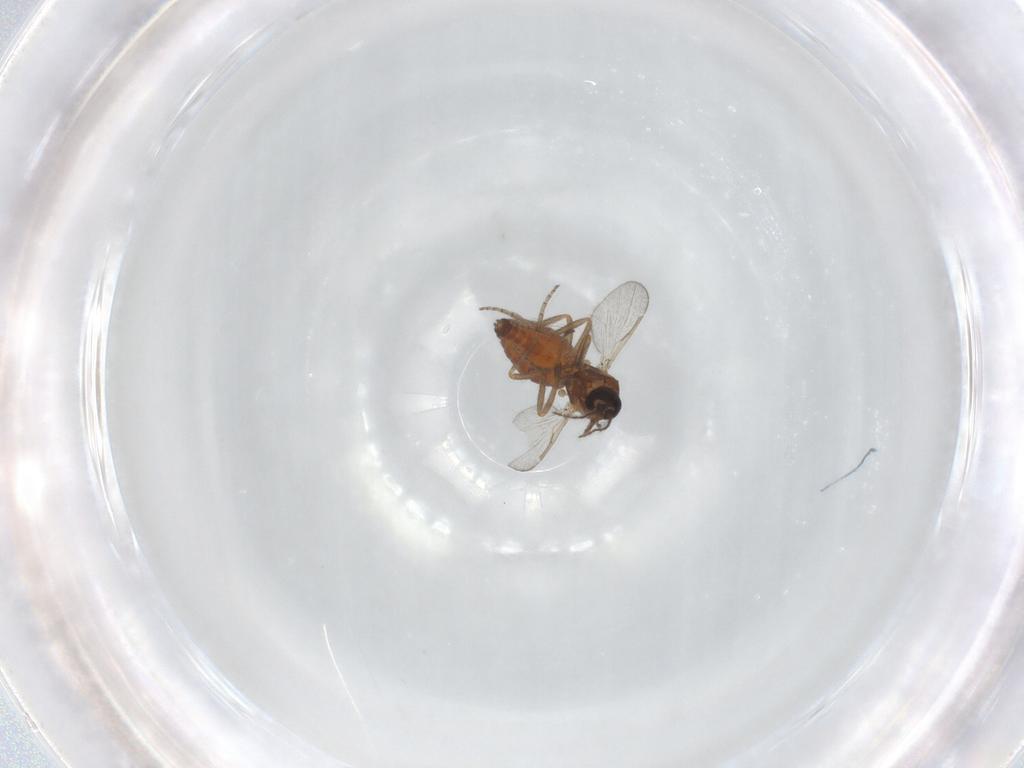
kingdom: Animalia
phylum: Arthropoda
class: Insecta
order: Diptera
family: Ceratopogonidae
